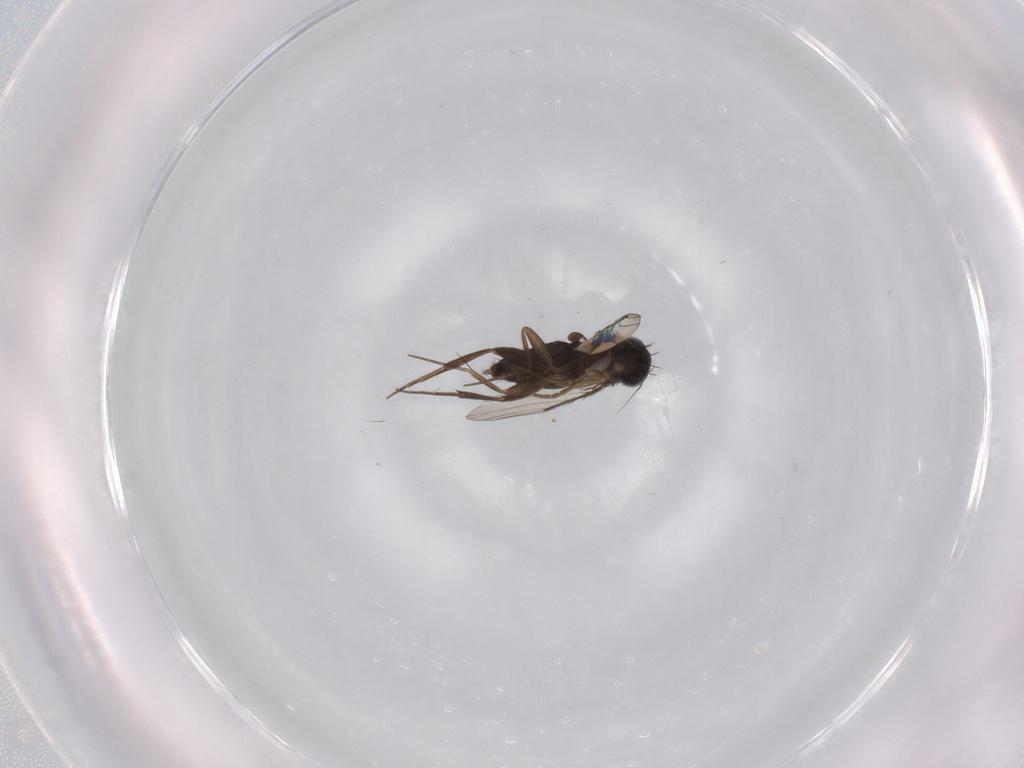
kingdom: Animalia
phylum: Arthropoda
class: Insecta
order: Diptera
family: Phoridae
